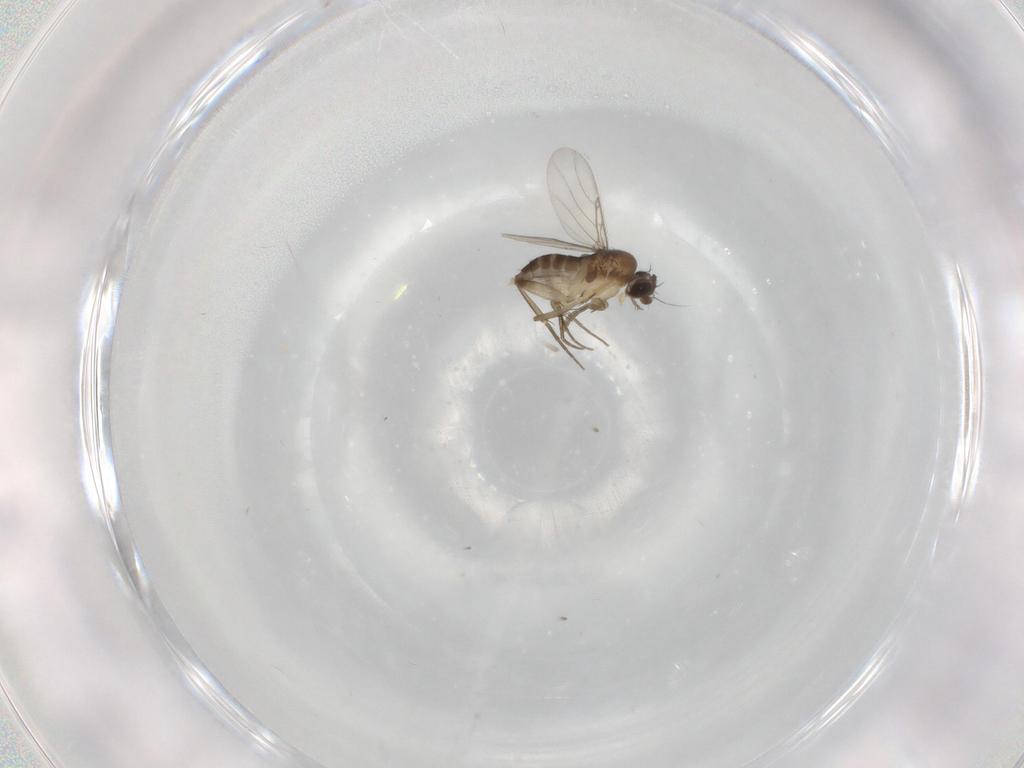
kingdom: Animalia
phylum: Arthropoda
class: Insecta
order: Diptera
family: Phoridae
